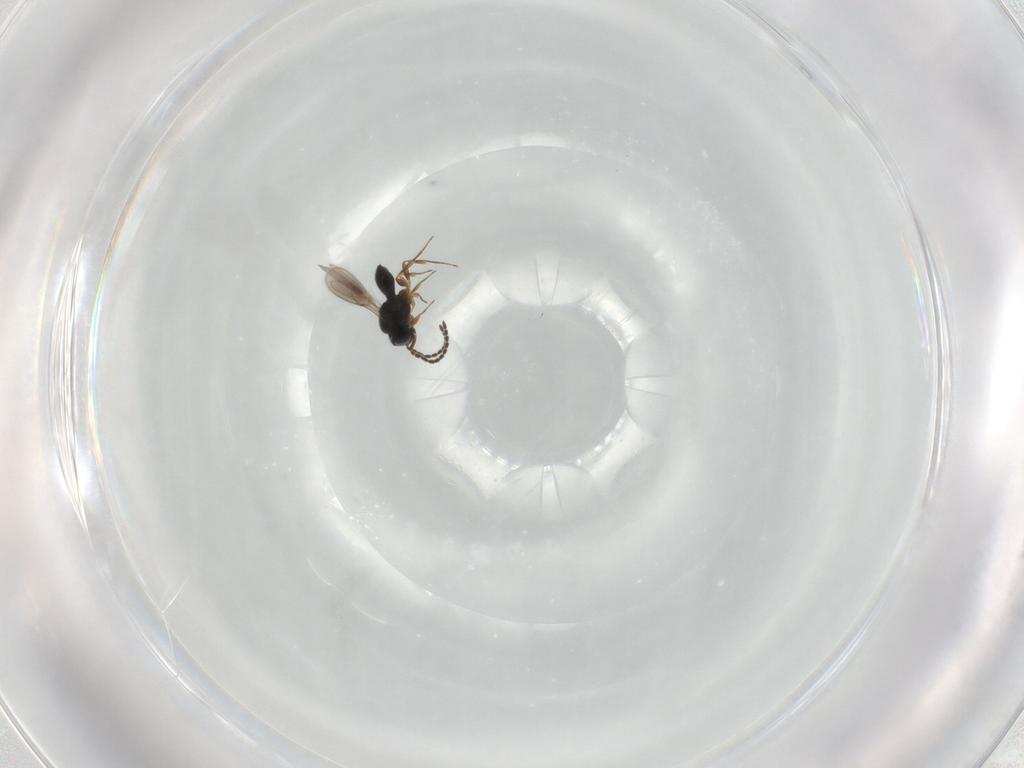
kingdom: Animalia
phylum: Arthropoda
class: Insecta
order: Hymenoptera
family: Scelionidae
